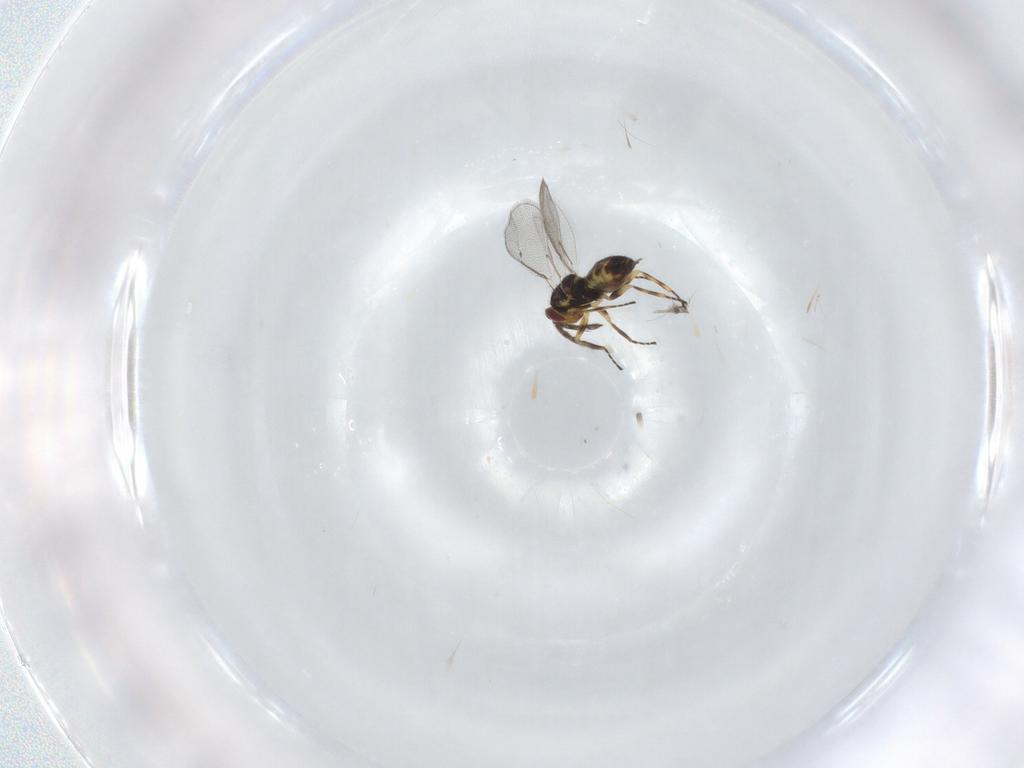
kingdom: Animalia
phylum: Arthropoda
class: Insecta
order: Hymenoptera
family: Eulophidae
